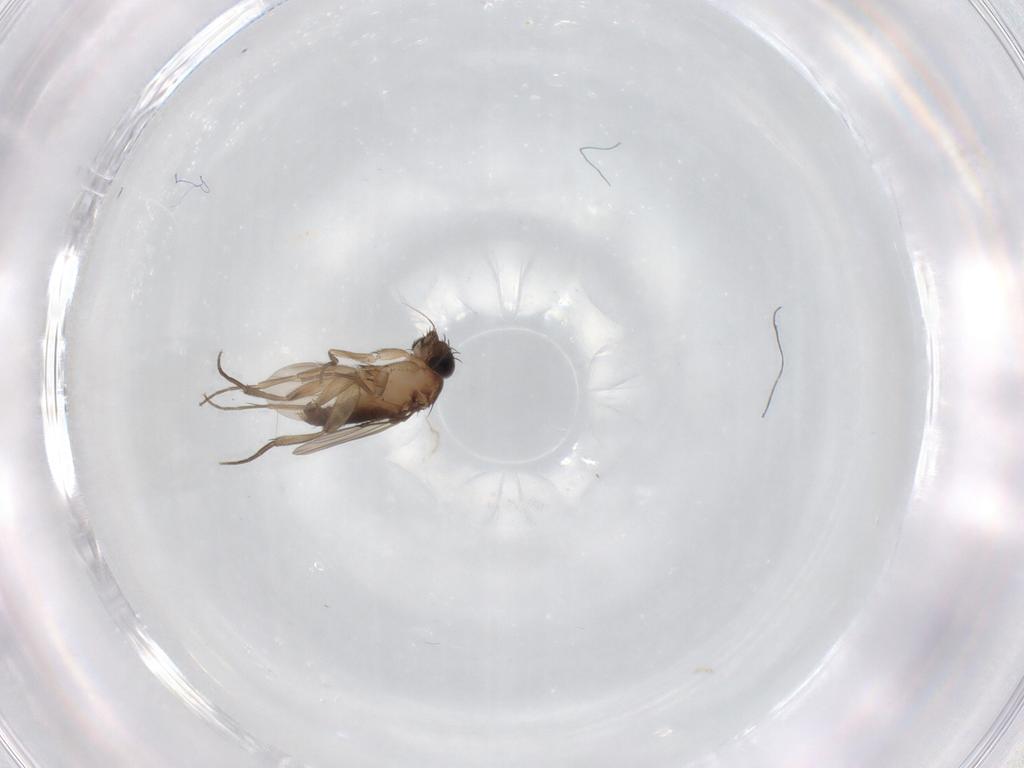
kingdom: Animalia
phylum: Arthropoda
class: Insecta
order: Diptera
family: Phoridae
